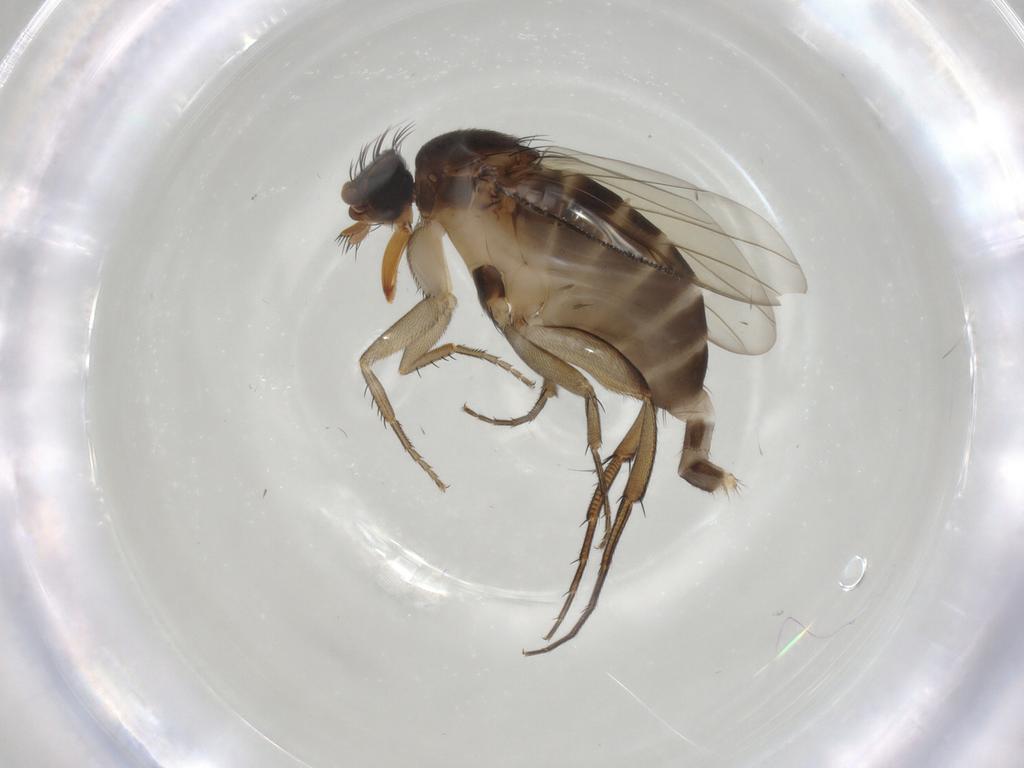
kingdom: Animalia
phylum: Arthropoda
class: Insecta
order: Diptera
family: Phoridae
